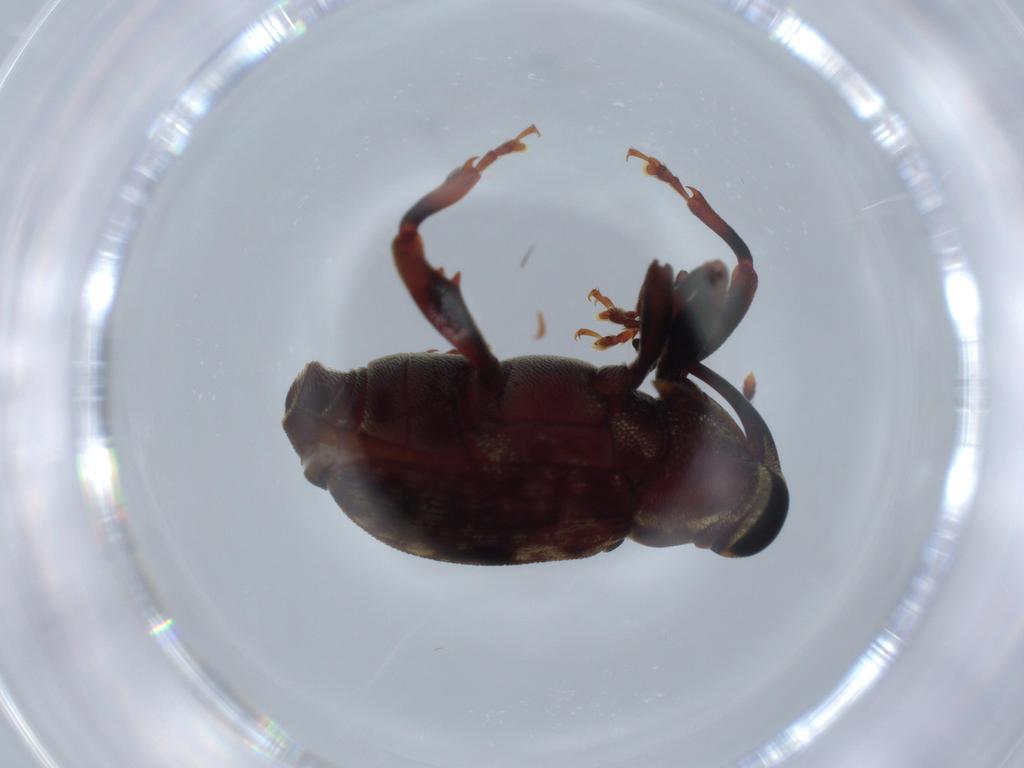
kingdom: Animalia
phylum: Arthropoda
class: Insecta
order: Coleoptera
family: Curculionidae
